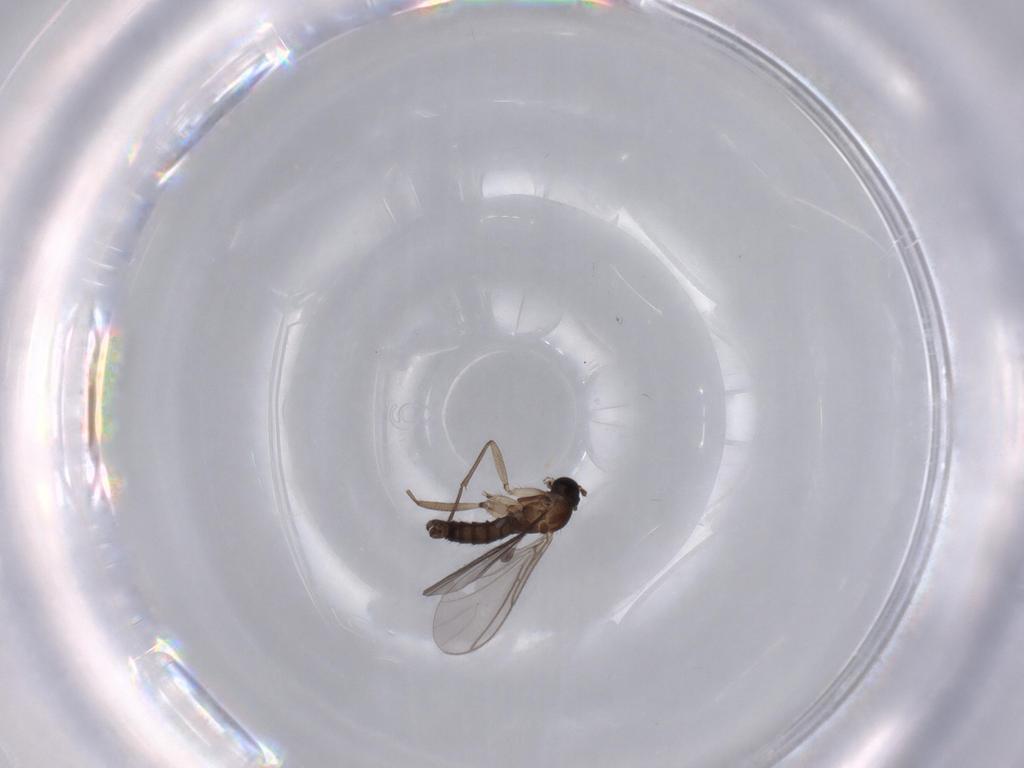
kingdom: Animalia
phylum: Arthropoda
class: Insecta
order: Diptera
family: Sciaridae
